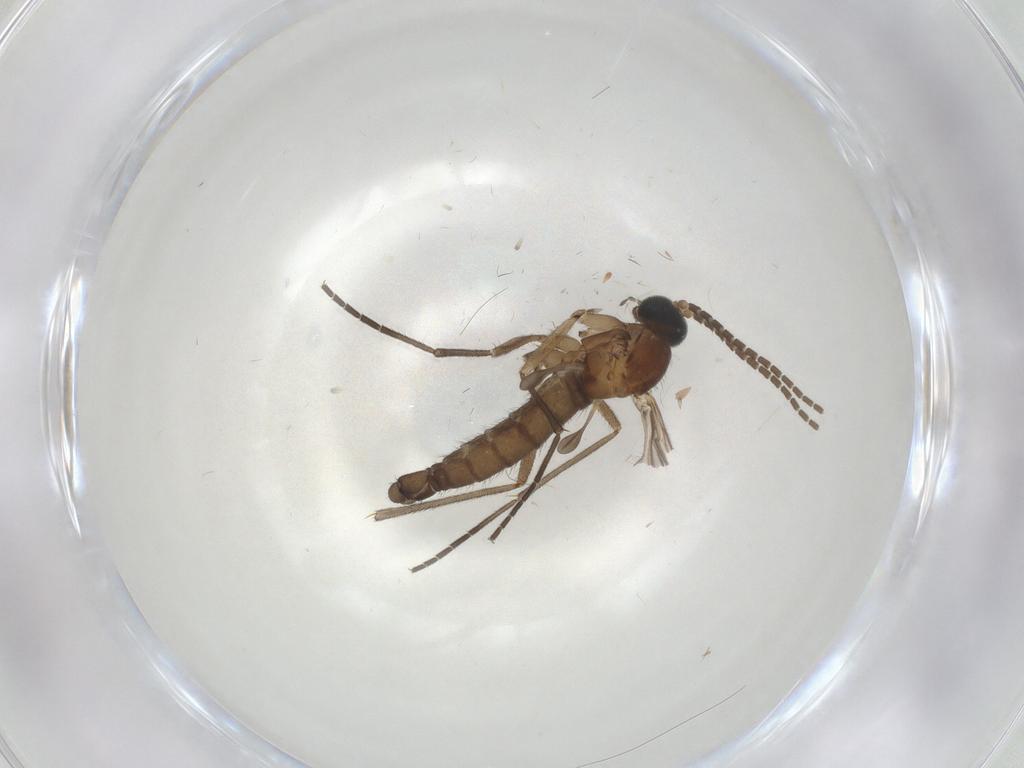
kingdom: Animalia
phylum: Arthropoda
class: Insecta
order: Diptera
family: Sciaridae
